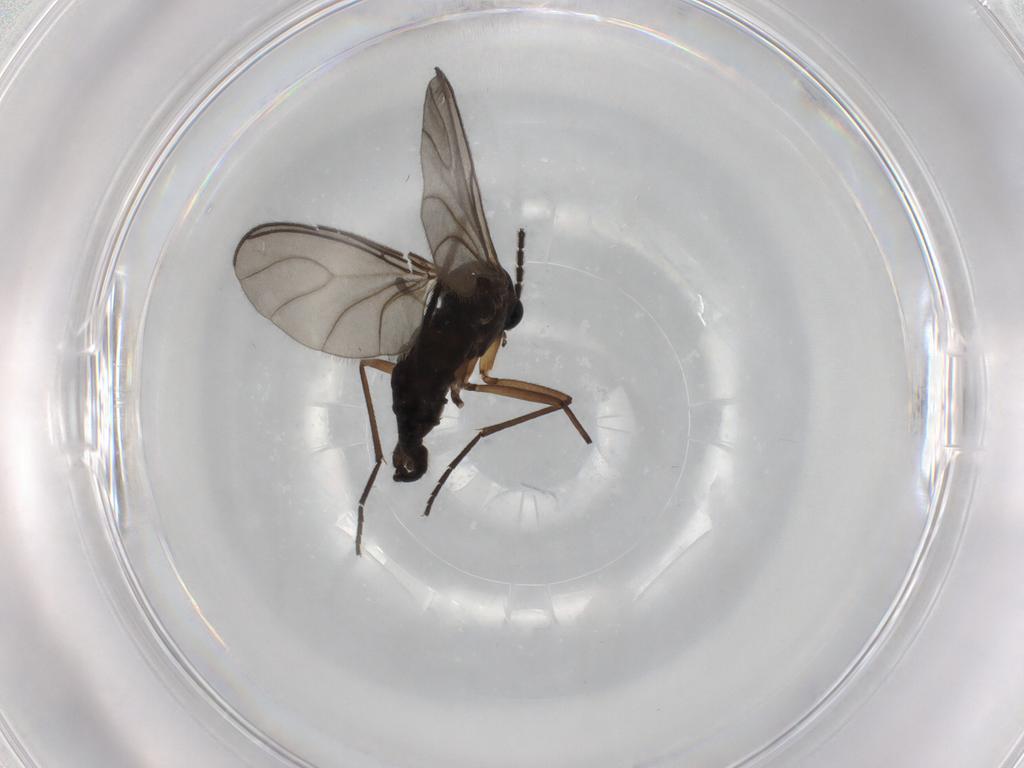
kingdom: Animalia
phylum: Arthropoda
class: Insecta
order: Diptera
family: Sciaridae
